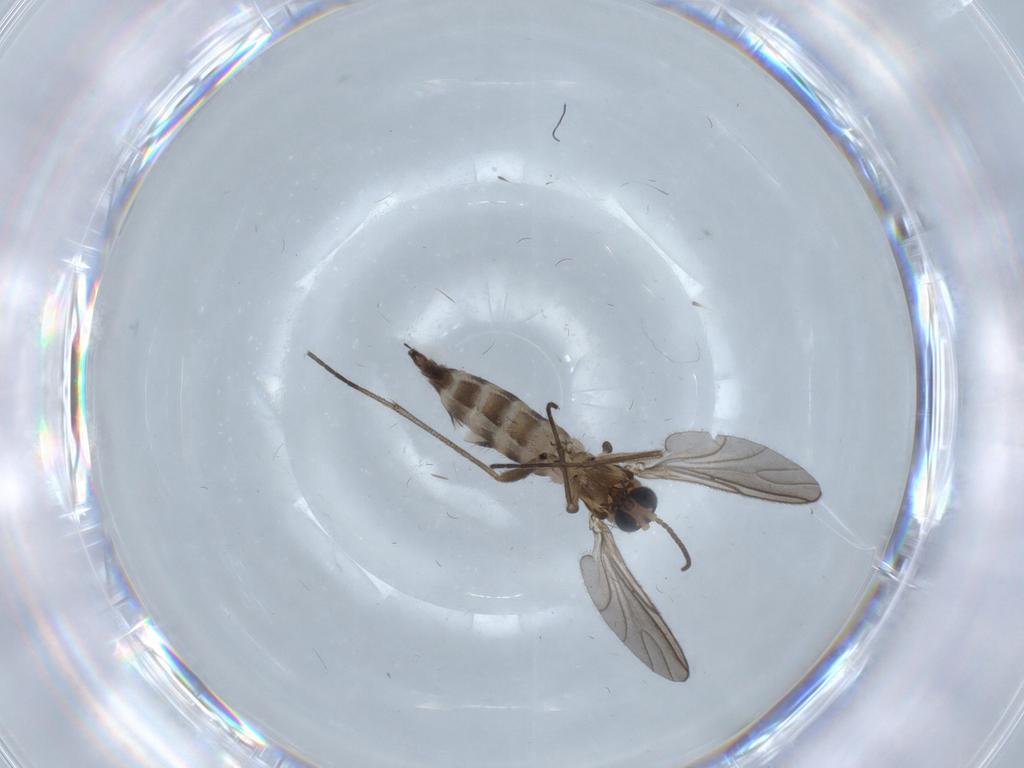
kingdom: Animalia
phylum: Arthropoda
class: Insecta
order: Diptera
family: Sciaridae
